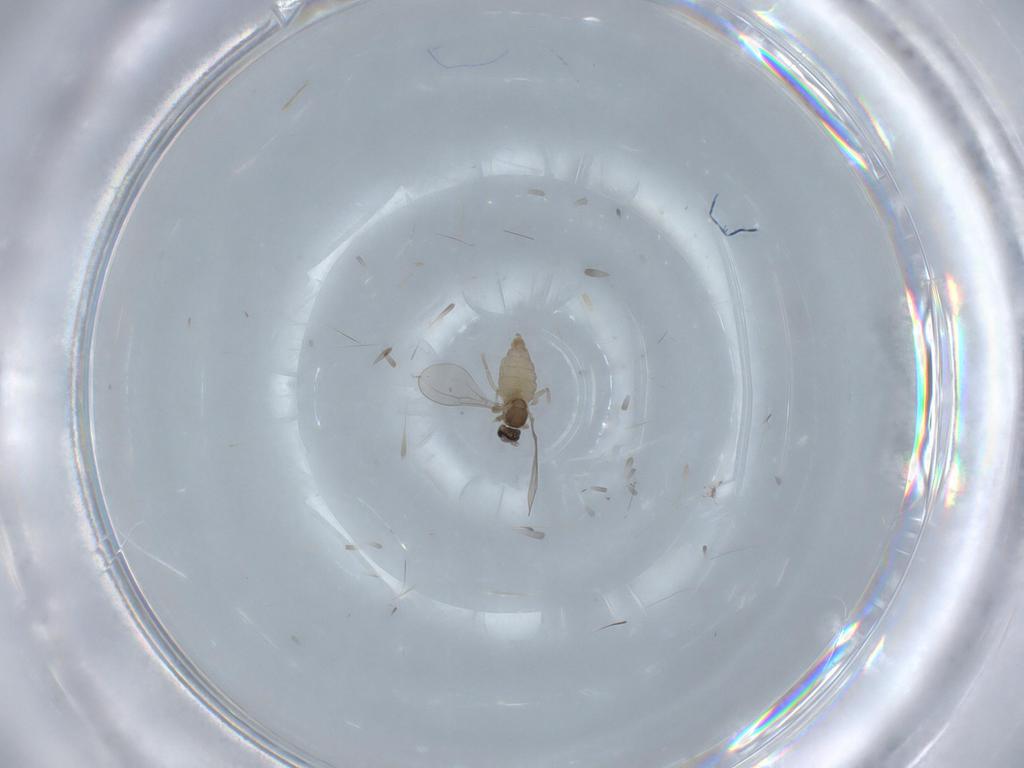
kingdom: Animalia
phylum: Arthropoda
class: Insecta
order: Diptera
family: Cecidomyiidae
